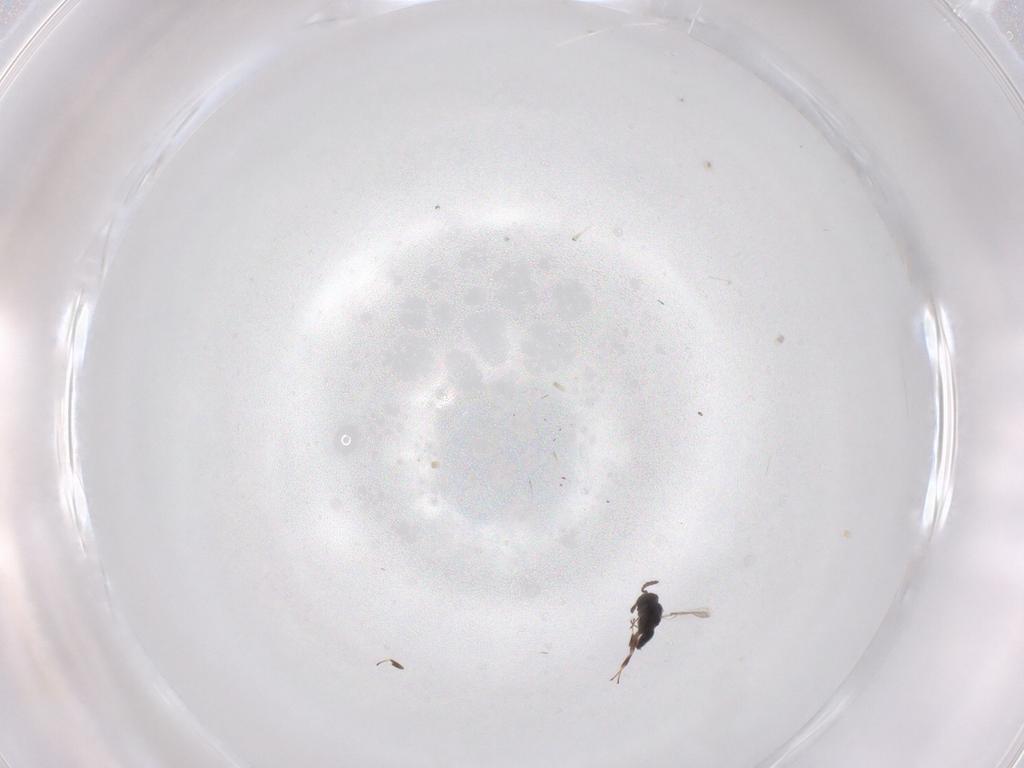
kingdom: Animalia
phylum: Arthropoda
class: Insecta
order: Hymenoptera
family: Scelionidae
